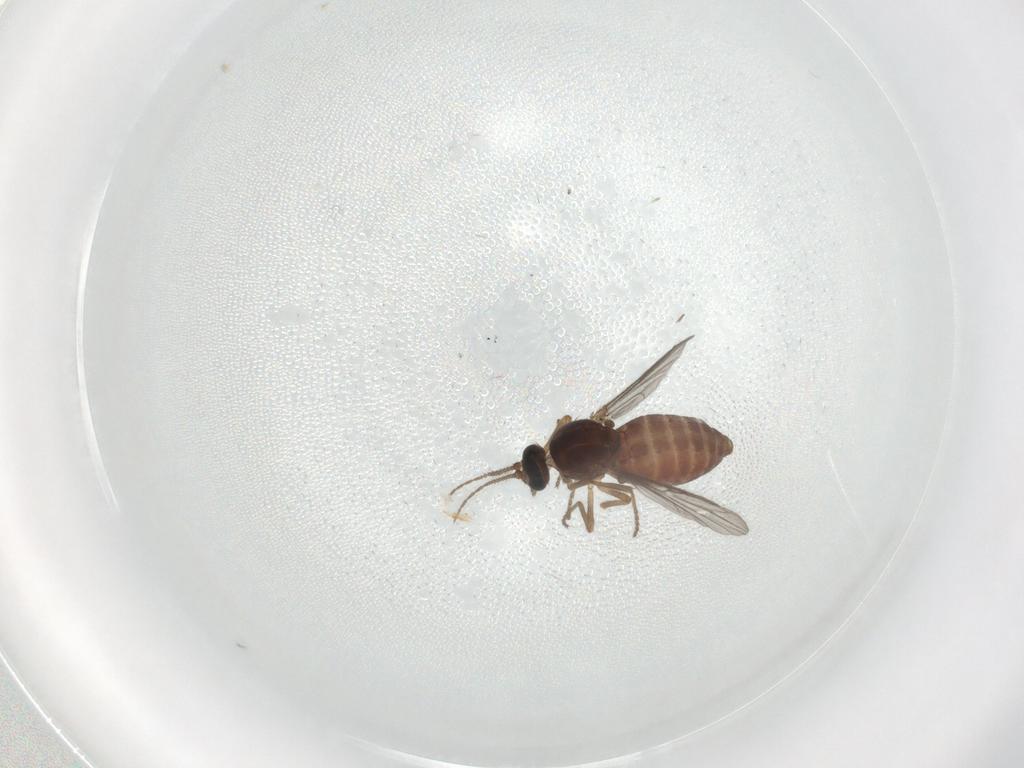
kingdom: Animalia
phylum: Arthropoda
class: Insecta
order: Diptera
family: Ceratopogonidae
